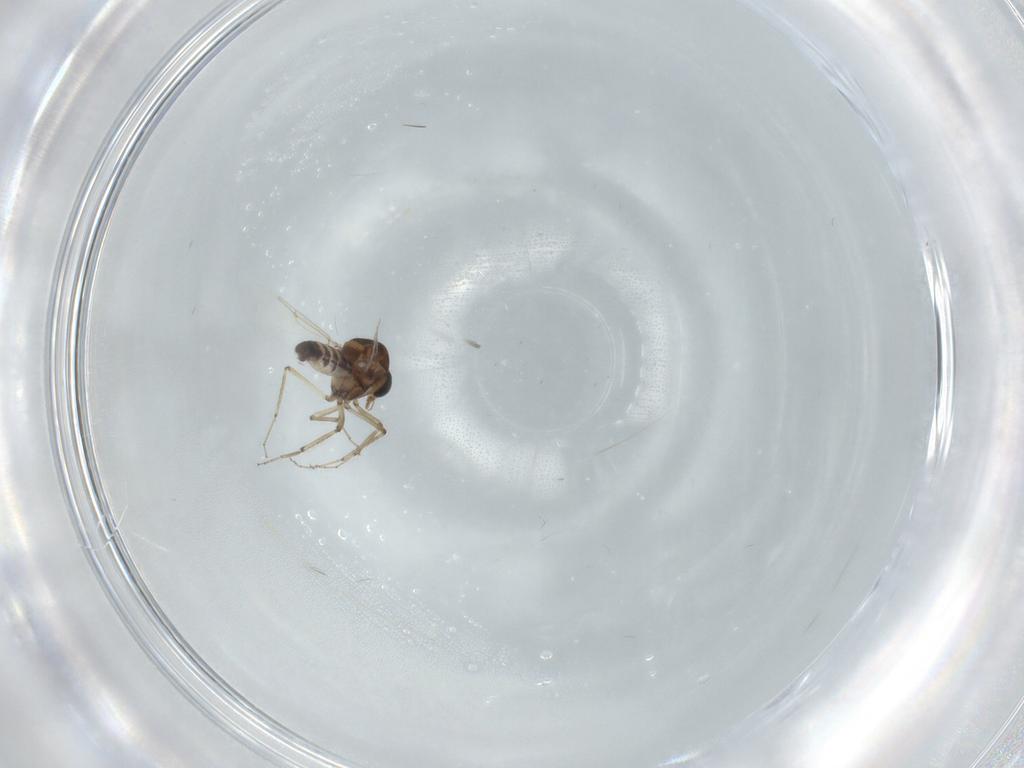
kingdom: Animalia
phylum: Arthropoda
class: Insecta
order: Diptera
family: Ceratopogonidae
